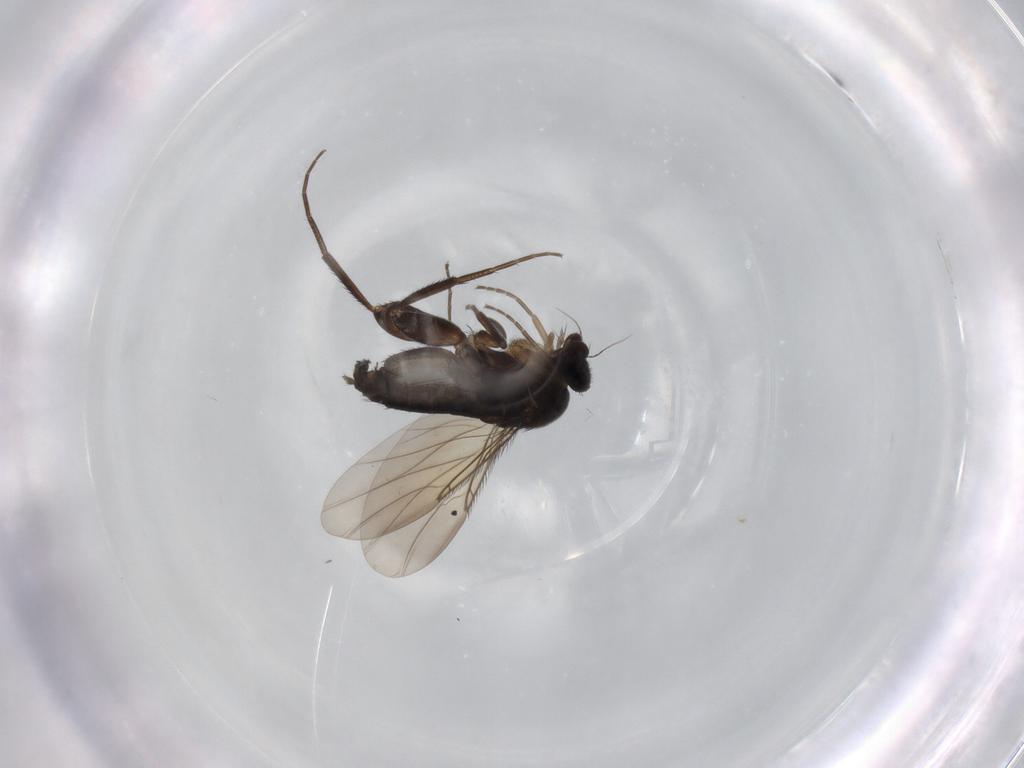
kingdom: Animalia
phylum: Arthropoda
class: Insecta
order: Diptera
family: Phoridae
